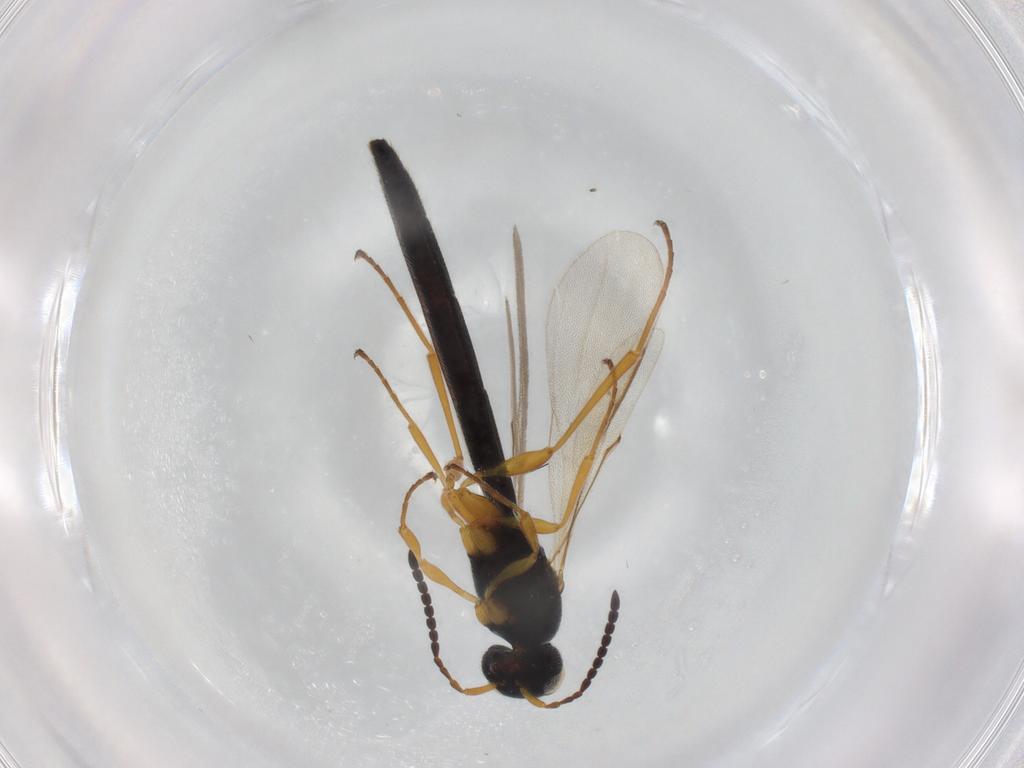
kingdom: Animalia
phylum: Arthropoda
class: Insecta
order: Hymenoptera
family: Scelionidae
